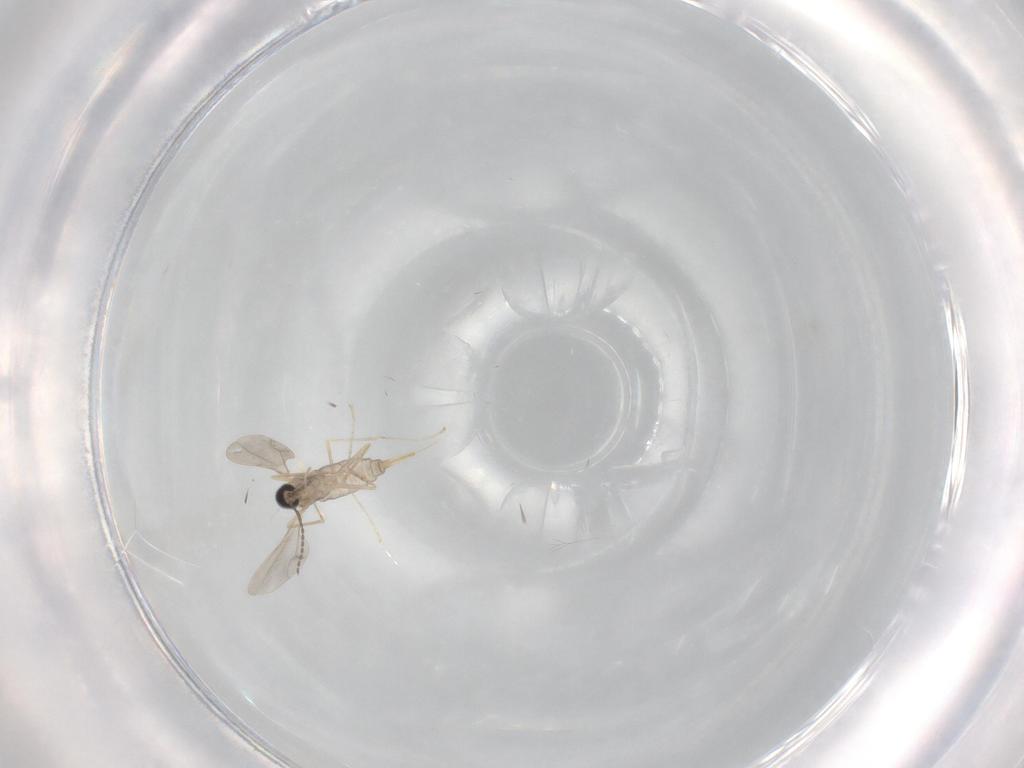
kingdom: Animalia
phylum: Arthropoda
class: Insecta
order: Diptera
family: Cecidomyiidae
